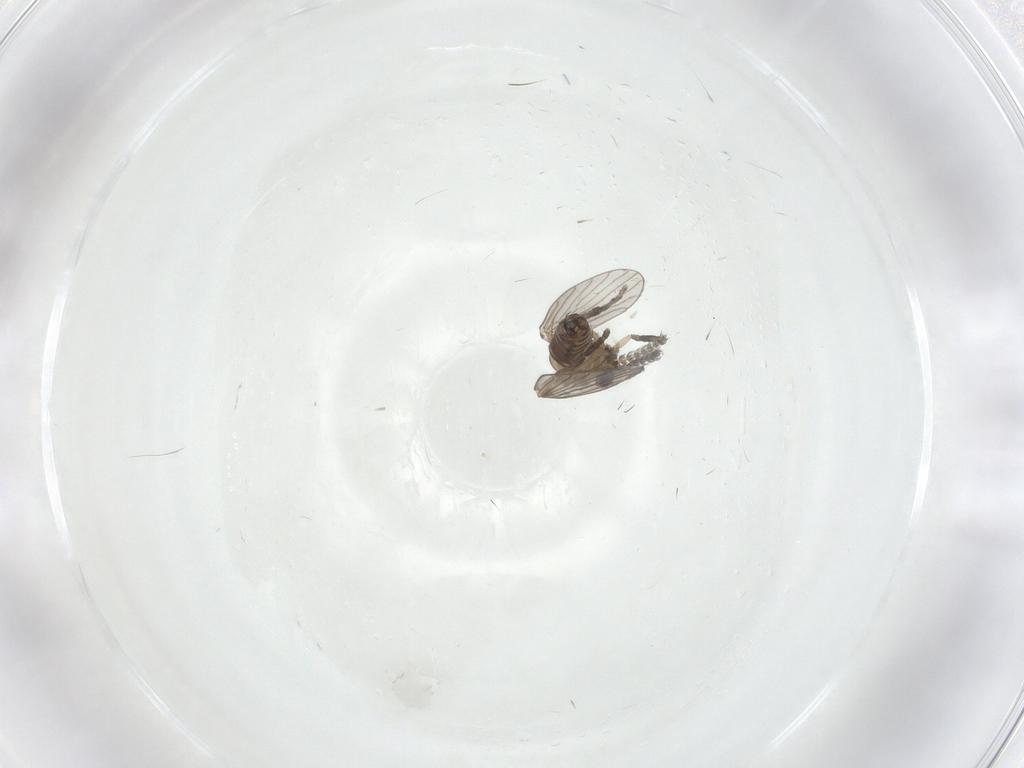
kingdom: Animalia
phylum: Arthropoda
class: Insecta
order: Diptera
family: Cecidomyiidae
